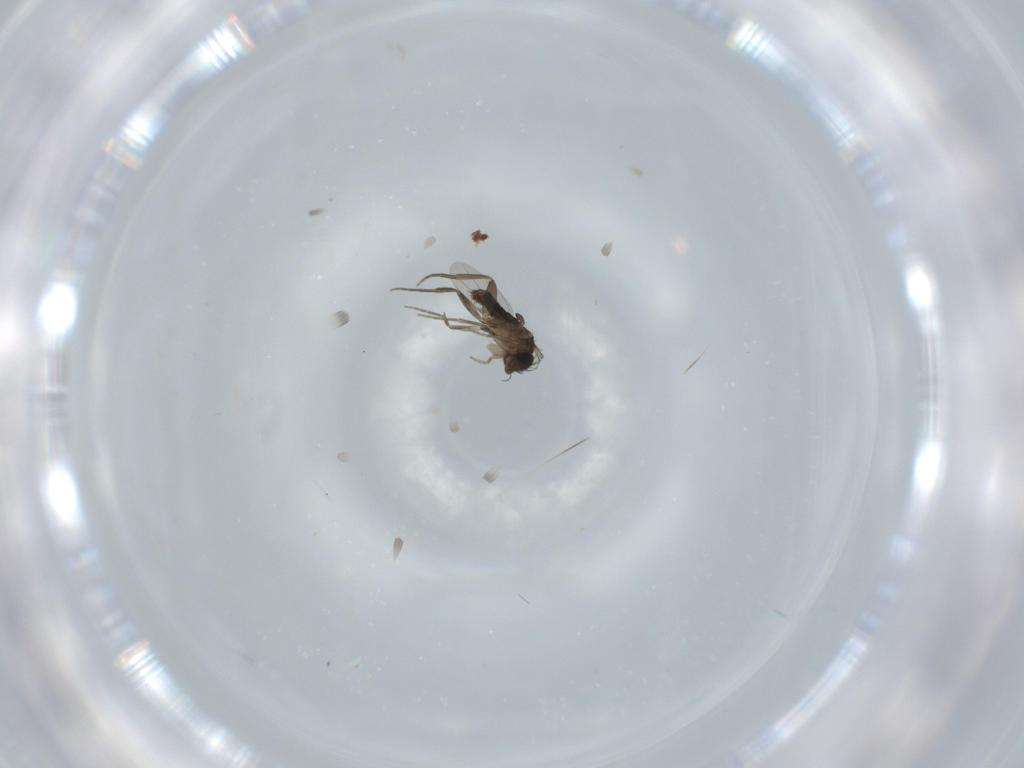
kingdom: Animalia
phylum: Arthropoda
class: Insecta
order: Diptera
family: Phoridae
